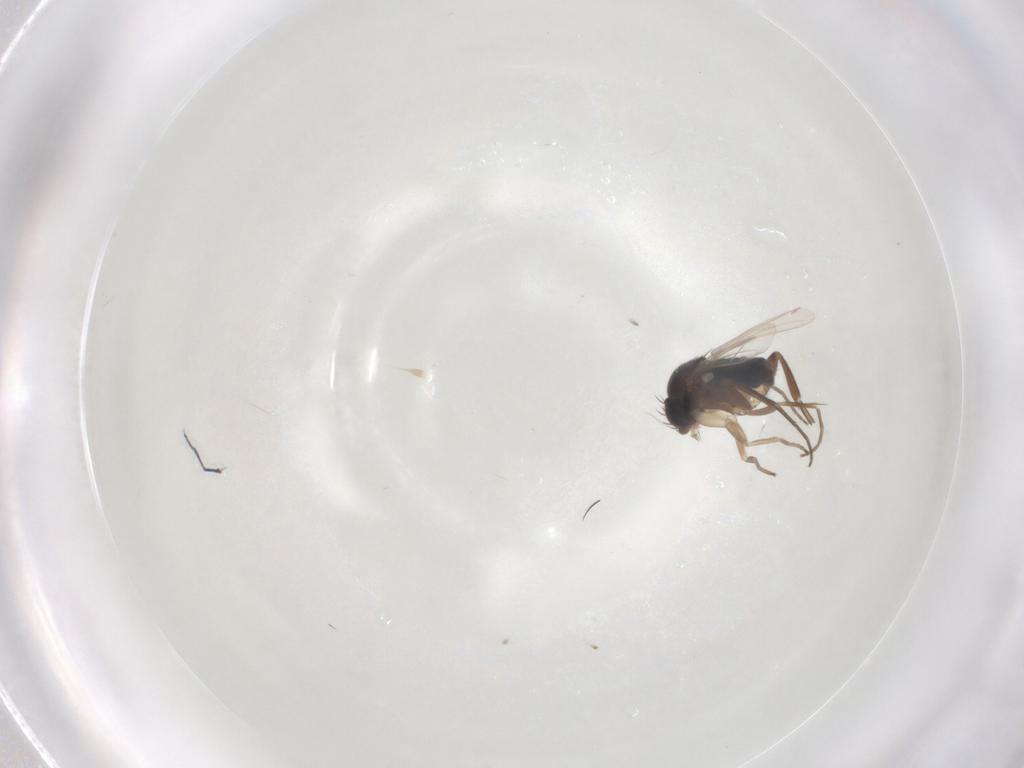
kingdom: Animalia
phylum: Arthropoda
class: Insecta
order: Diptera
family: Phoridae
